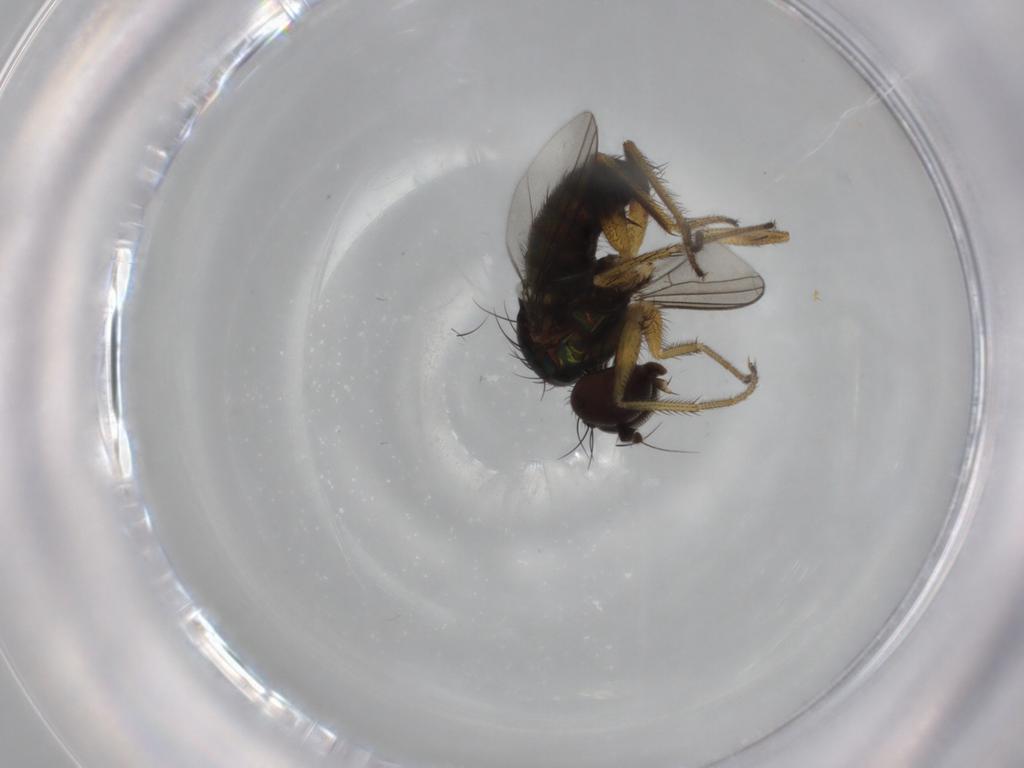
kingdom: Animalia
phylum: Arthropoda
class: Insecta
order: Diptera
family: Dolichopodidae
